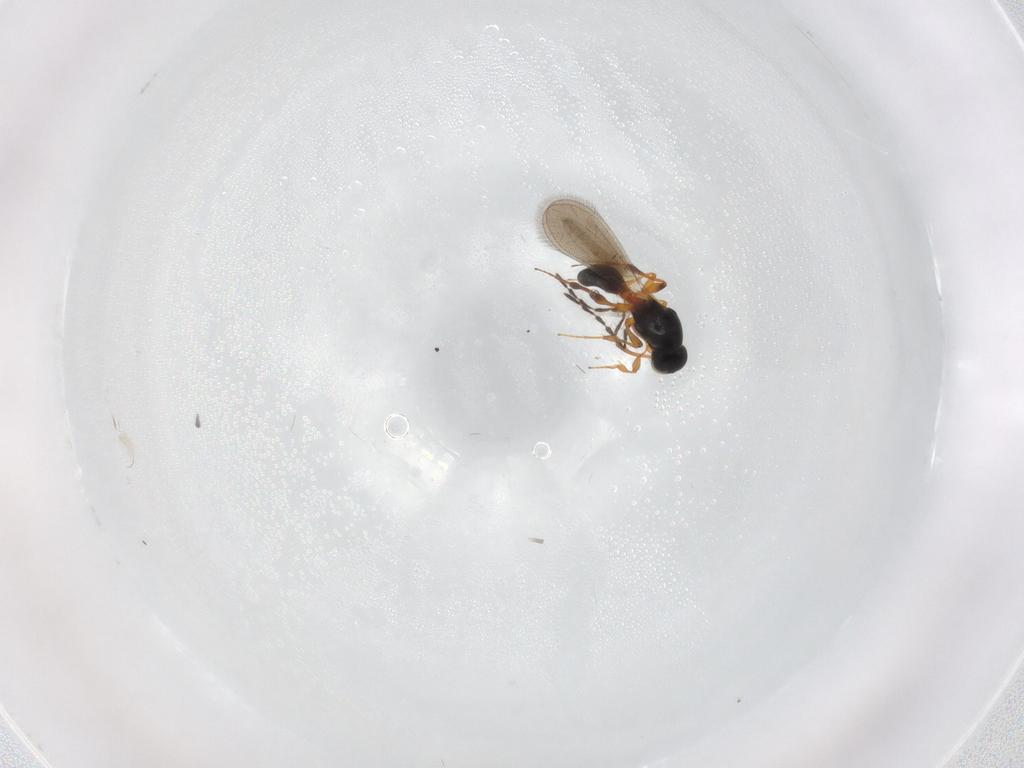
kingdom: Animalia
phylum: Arthropoda
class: Insecta
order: Hymenoptera
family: Platygastridae
